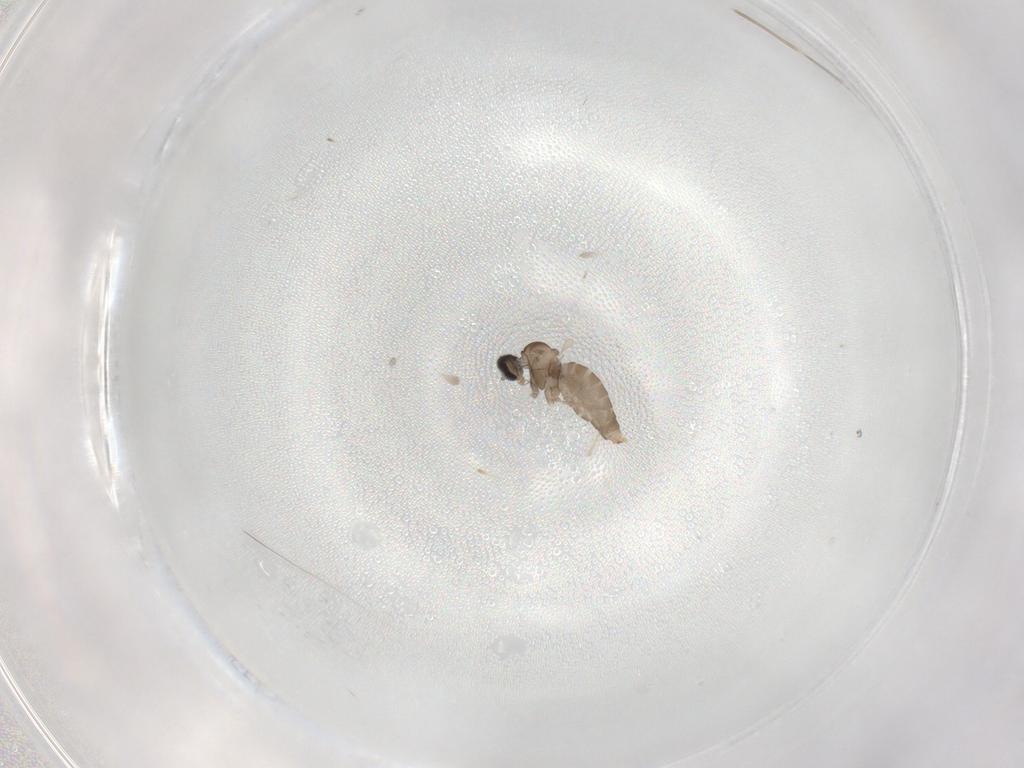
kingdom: Animalia
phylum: Arthropoda
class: Insecta
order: Diptera
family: Cecidomyiidae
